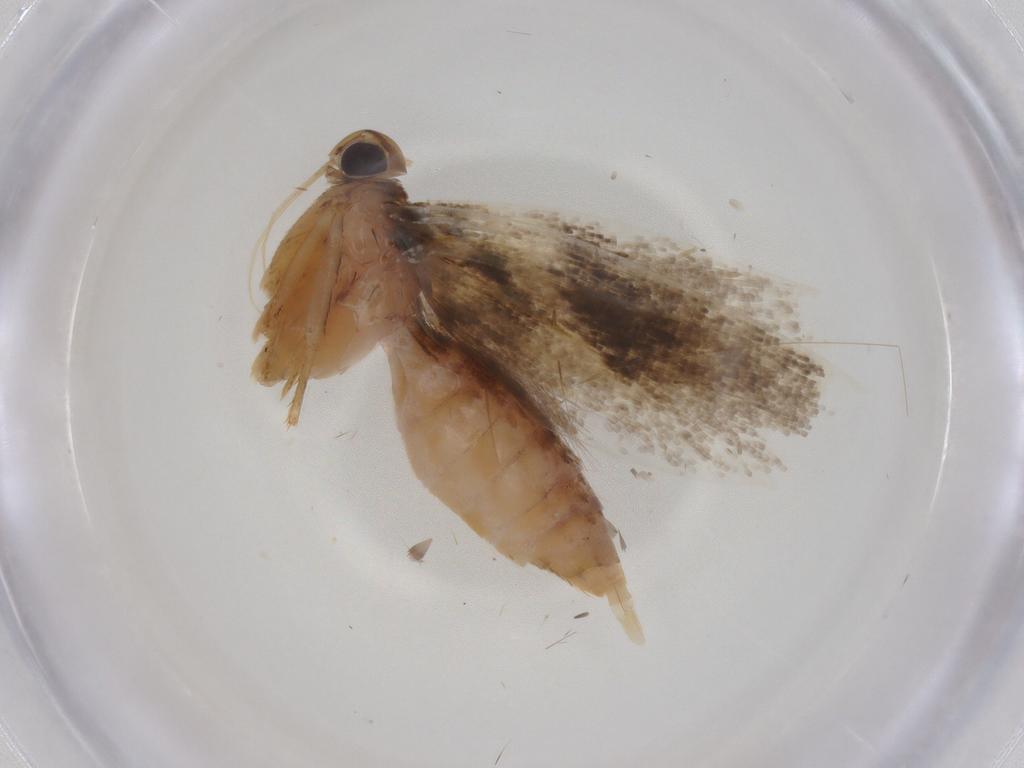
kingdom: Animalia
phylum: Arthropoda
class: Insecta
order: Lepidoptera
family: Gelechiidae
